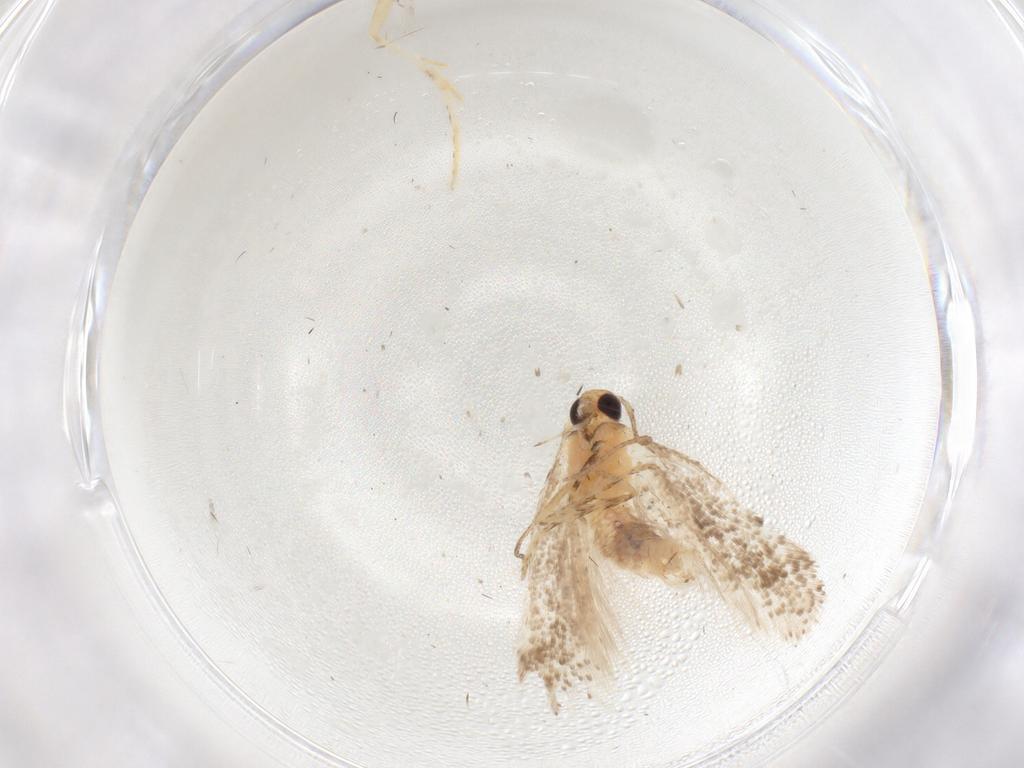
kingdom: Animalia
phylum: Arthropoda
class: Insecta
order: Lepidoptera
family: Gelechiidae
